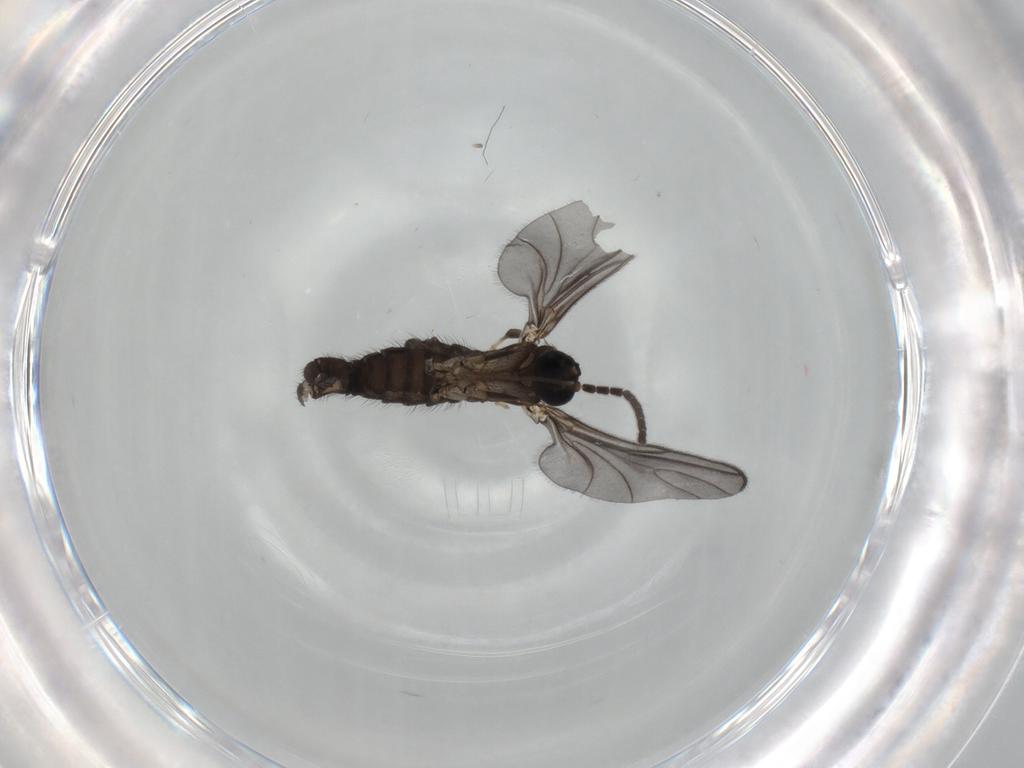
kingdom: Animalia
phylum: Arthropoda
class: Insecta
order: Diptera
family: Sciaridae
